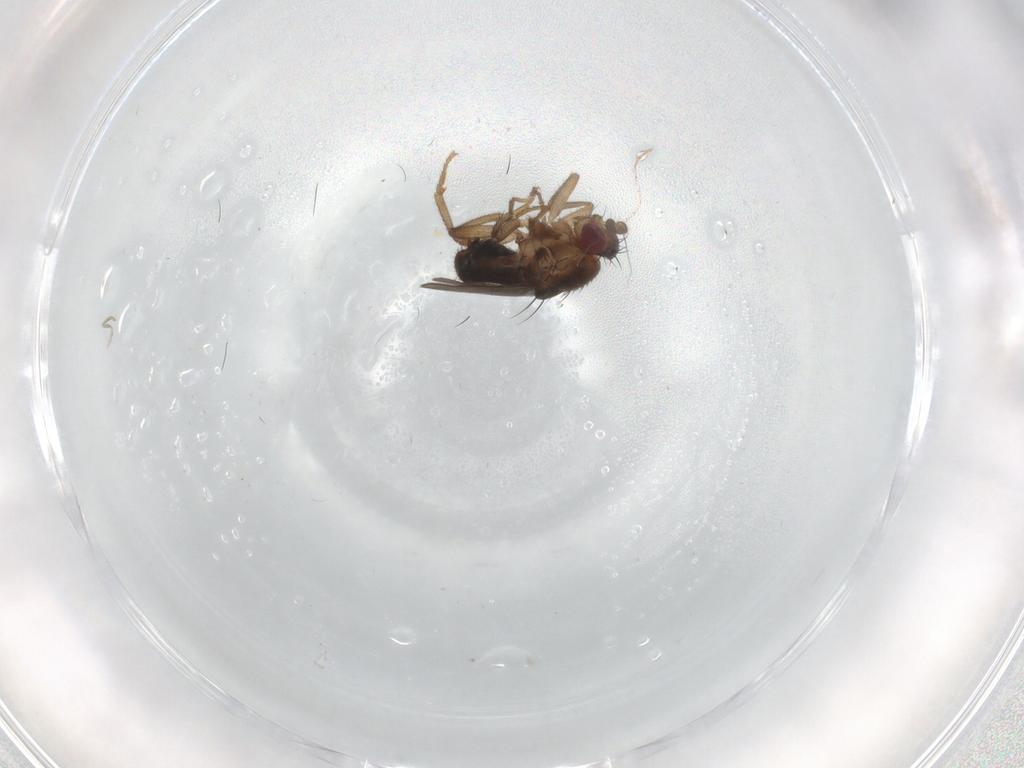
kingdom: Animalia
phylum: Arthropoda
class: Insecta
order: Diptera
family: Sphaeroceridae
